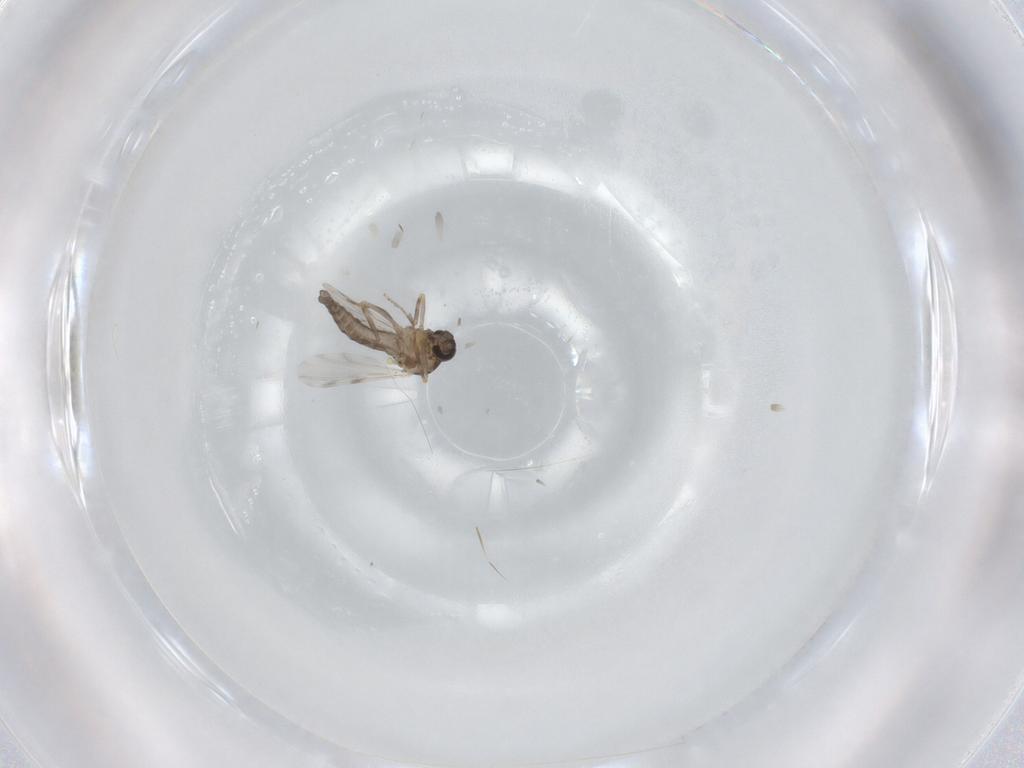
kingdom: Animalia
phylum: Arthropoda
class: Insecta
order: Diptera
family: Ceratopogonidae
